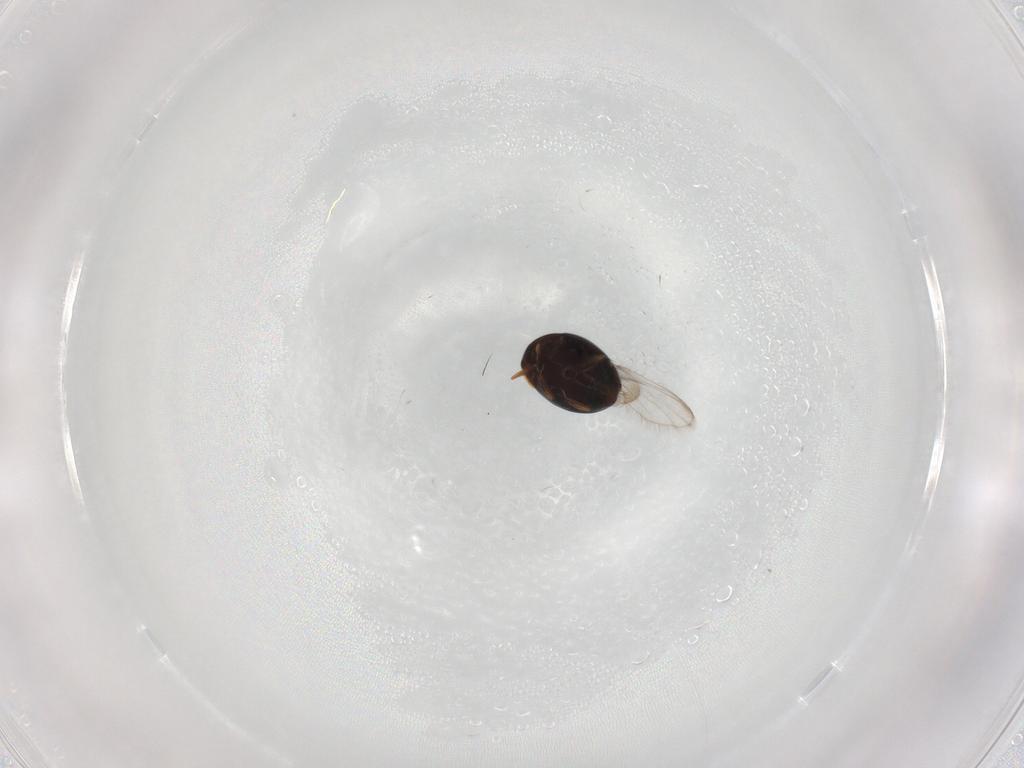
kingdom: Animalia
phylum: Arthropoda
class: Insecta
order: Coleoptera
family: Corylophidae
